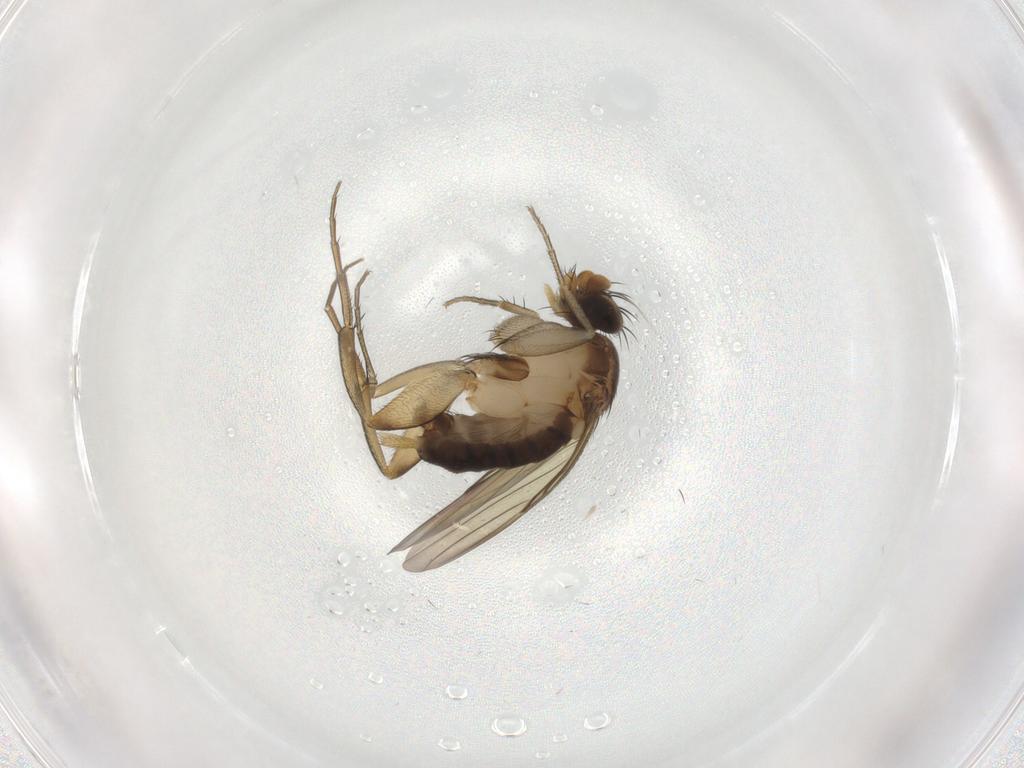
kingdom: Animalia
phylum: Arthropoda
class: Insecta
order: Diptera
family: Phoridae
